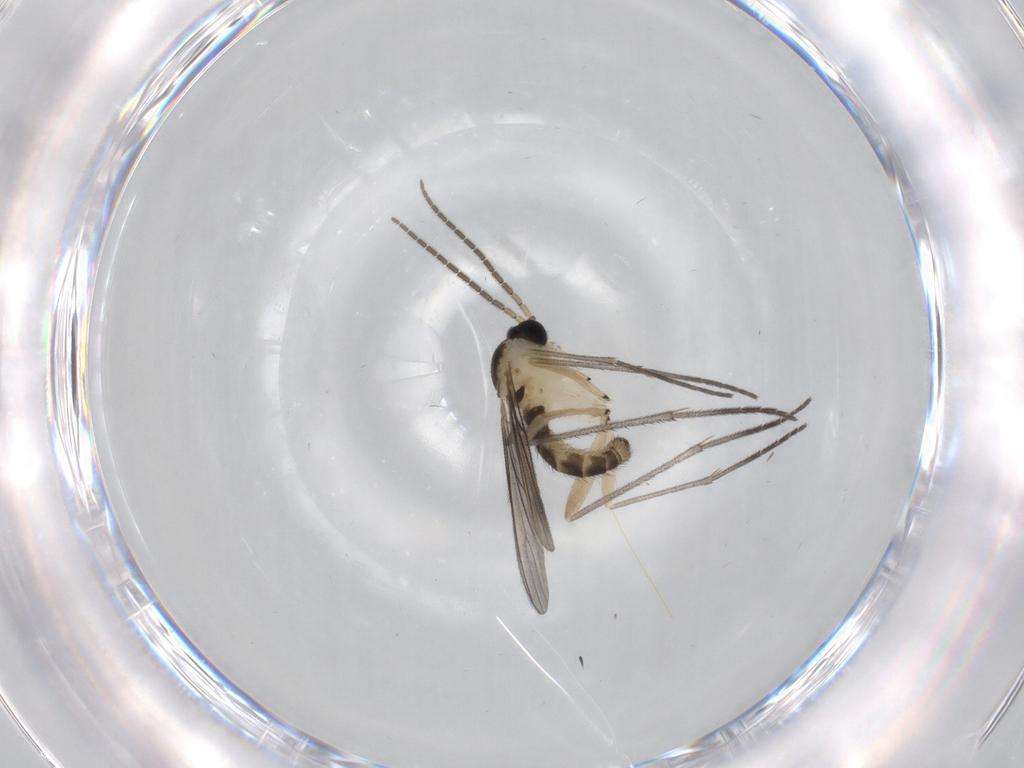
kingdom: Animalia
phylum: Arthropoda
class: Insecta
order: Diptera
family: Sciaridae
